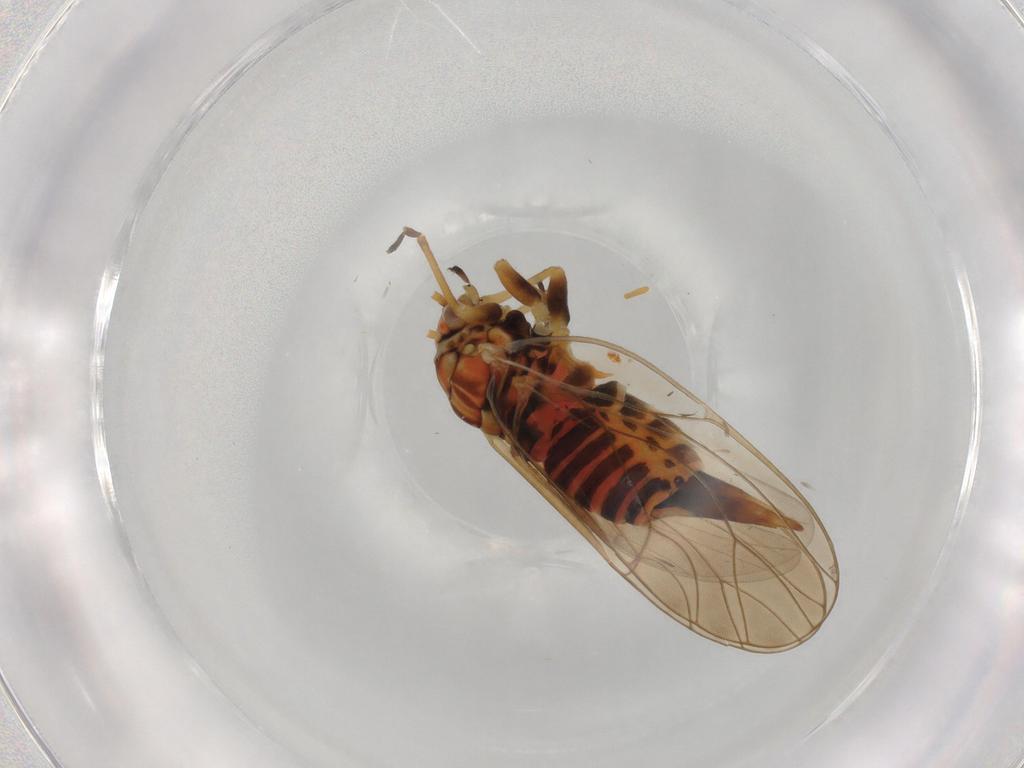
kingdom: Animalia
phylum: Arthropoda
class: Insecta
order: Hemiptera
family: Psyllidae
